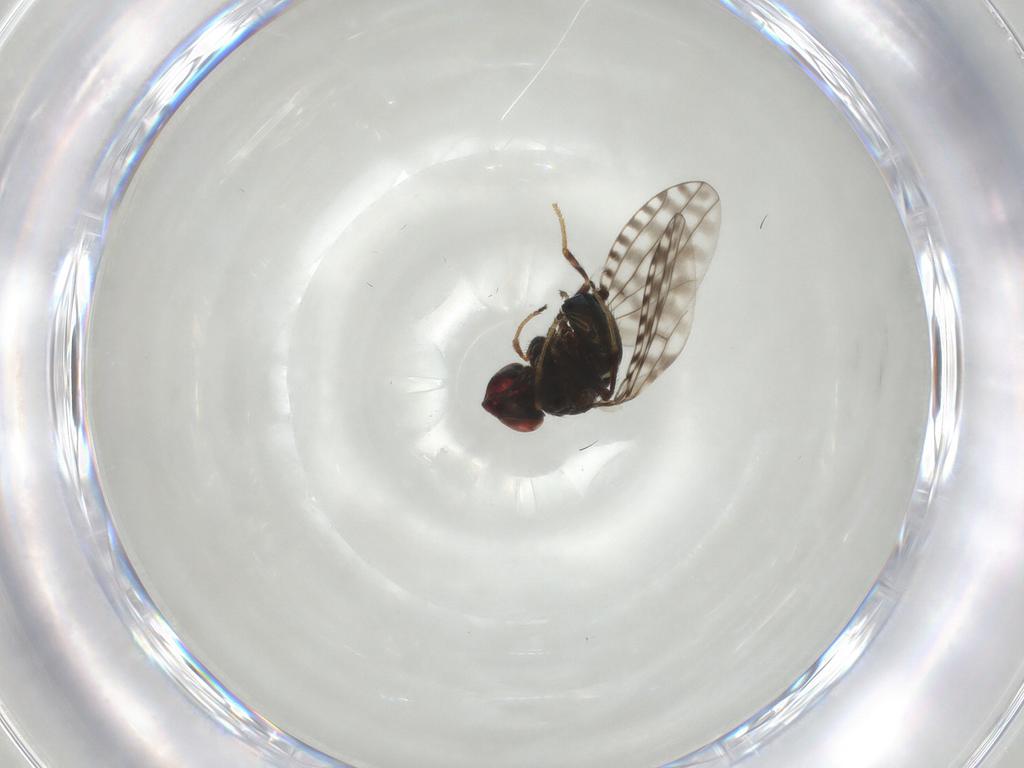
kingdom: Animalia
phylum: Arthropoda
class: Insecta
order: Diptera
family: Ephydridae
